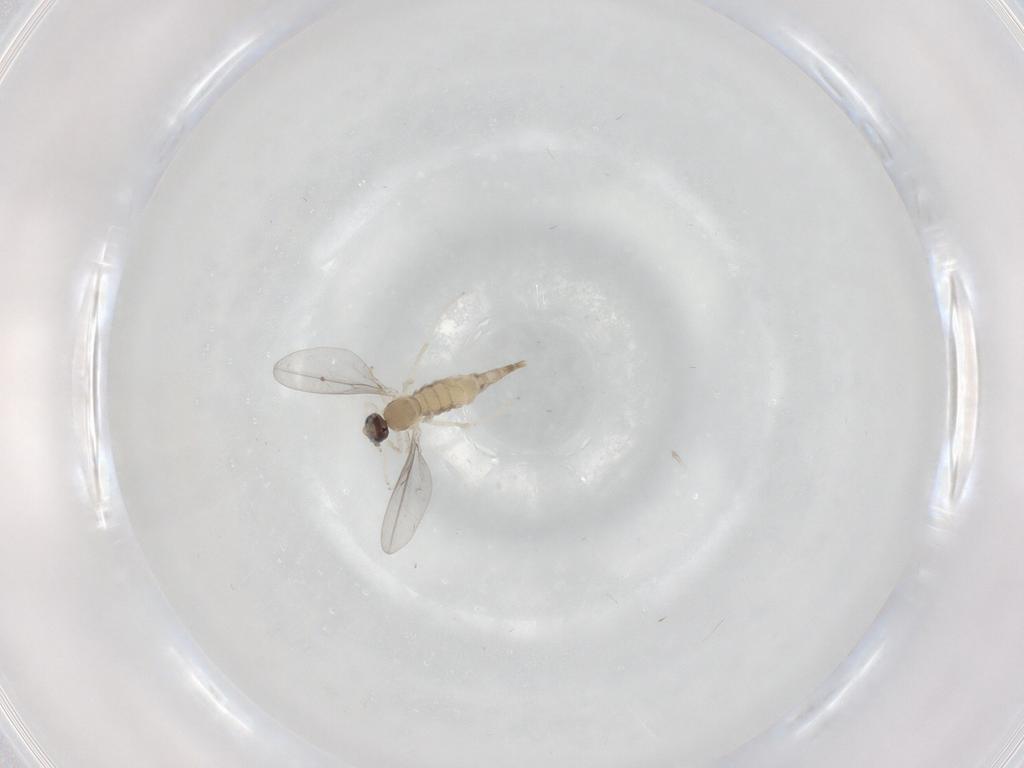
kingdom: Animalia
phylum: Arthropoda
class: Insecta
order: Diptera
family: Cecidomyiidae
